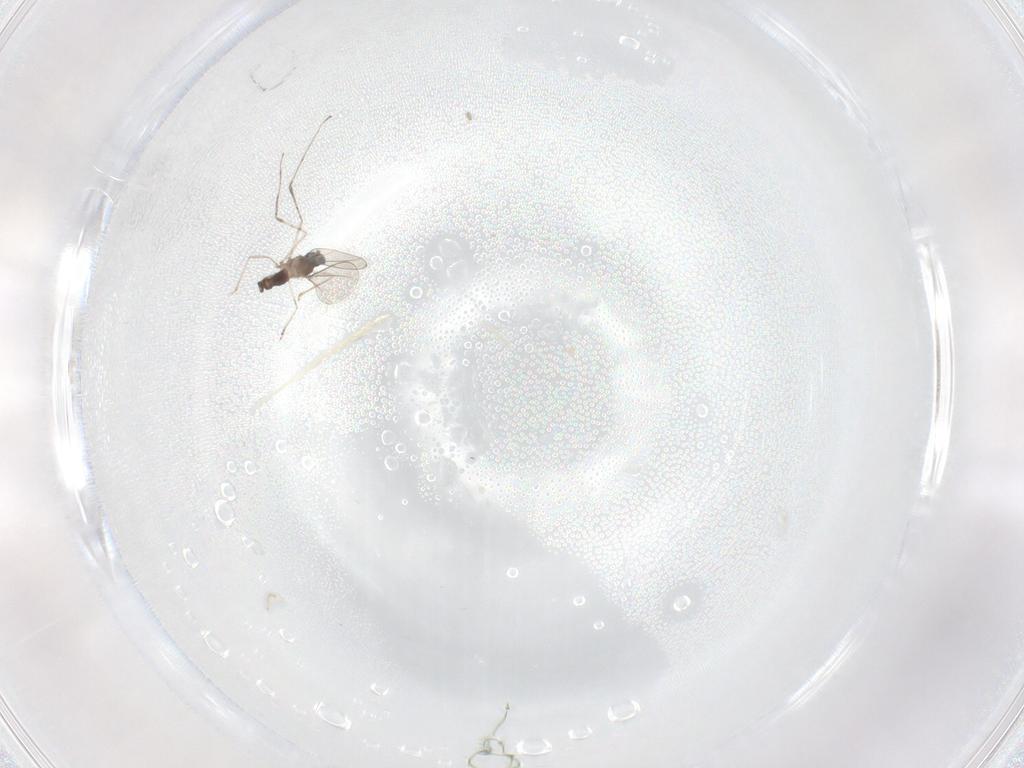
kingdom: Animalia
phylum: Arthropoda
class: Insecta
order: Diptera
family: Cecidomyiidae
